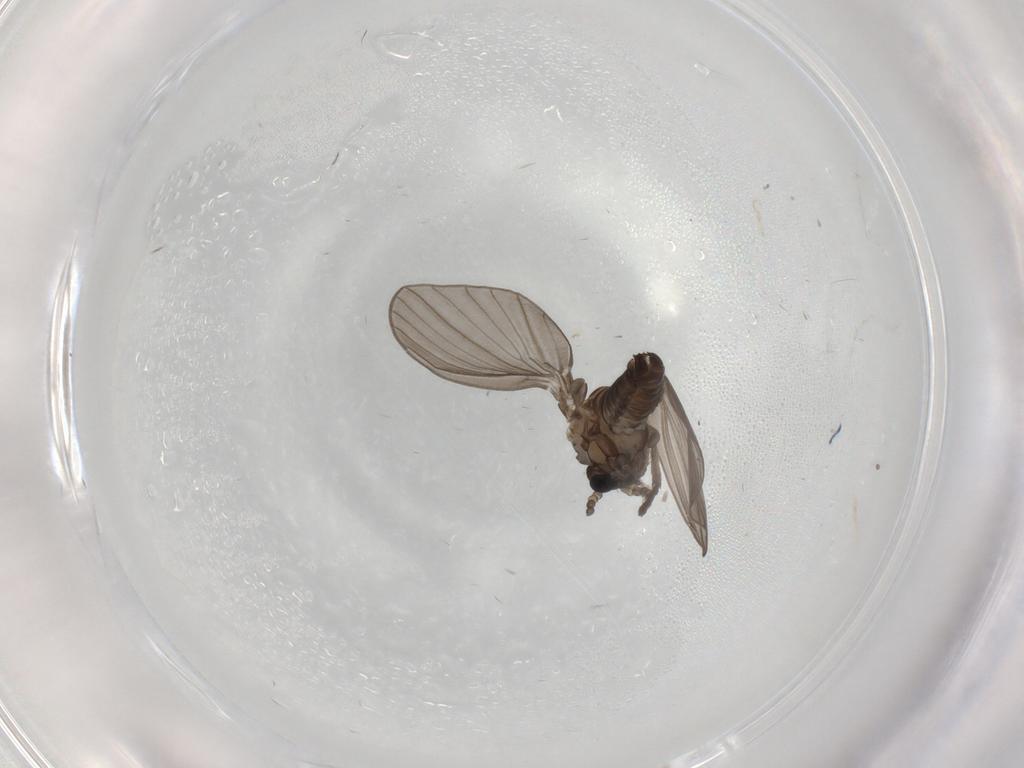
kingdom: Animalia
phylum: Arthropoda
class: Insecta
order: Diptera
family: Psychodidae
